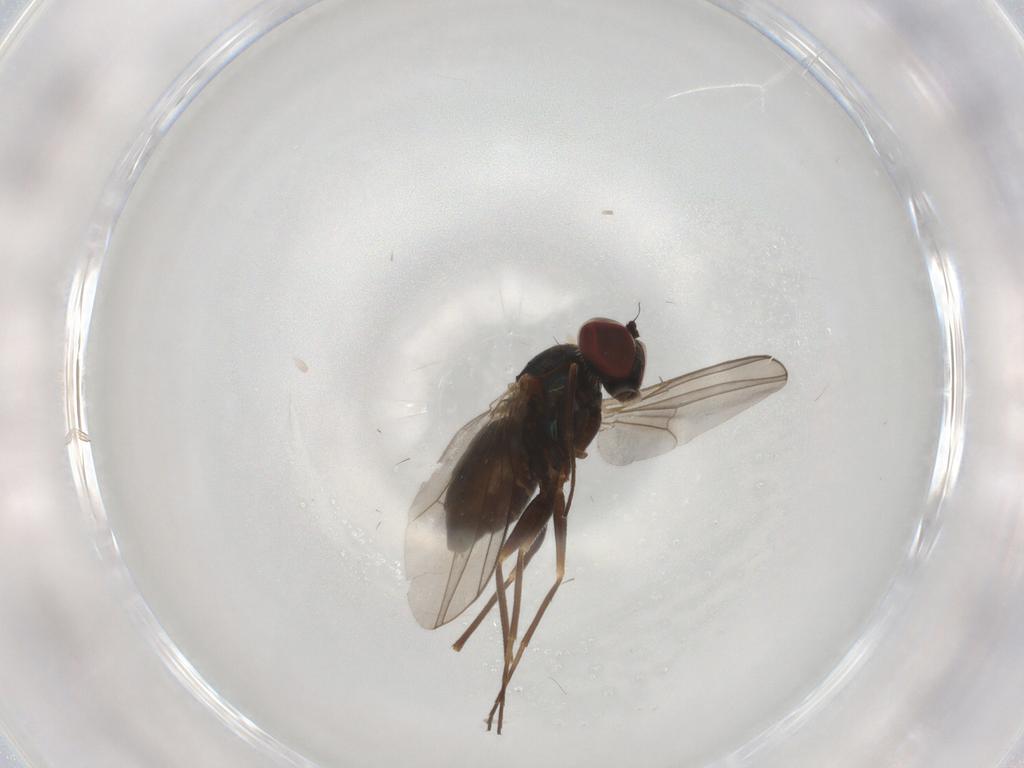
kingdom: Animalia
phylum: Arthropoda
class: Insecta
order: Diptera
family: Dolichopodidae
